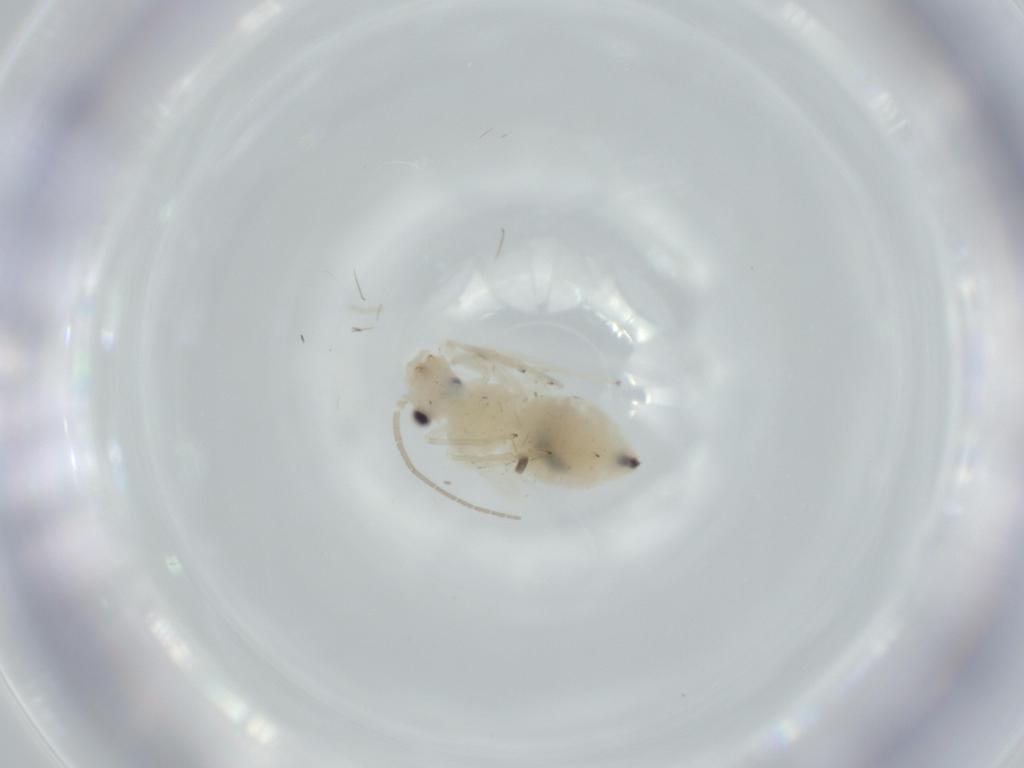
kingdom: Animalia
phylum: Arthropoda
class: Insecta
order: Psocodea
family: Caeciliusidae
